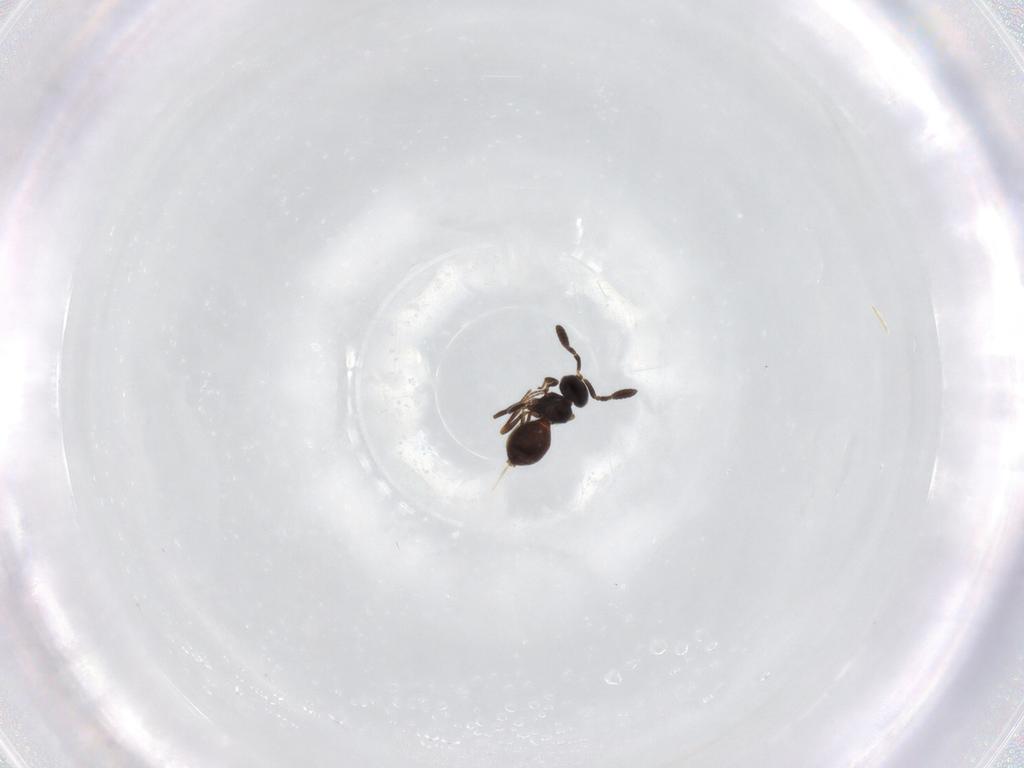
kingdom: Animalia
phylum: Arthropoda
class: Insecta
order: Hymenoptera
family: Scelionidae
